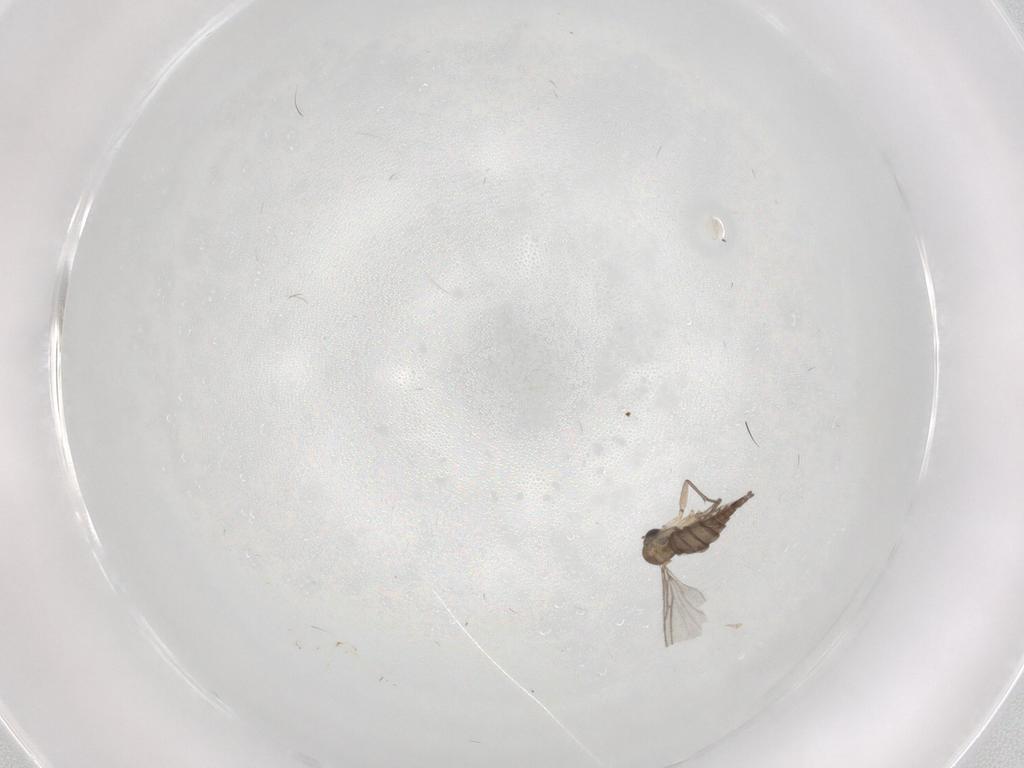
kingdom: Animalia
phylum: Arthropoda
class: Insecta
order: Diptera
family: Sciaridae
